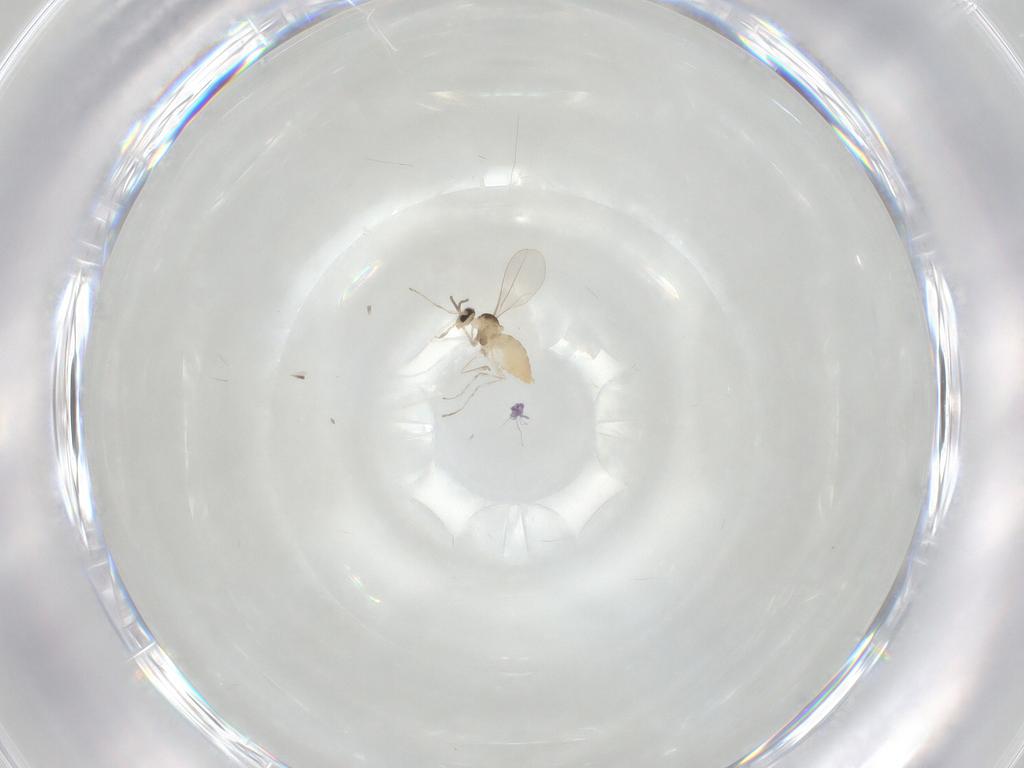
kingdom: Animalia
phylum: Arthropoda
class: Insecta
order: Diptera
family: Cecidomyiidae
